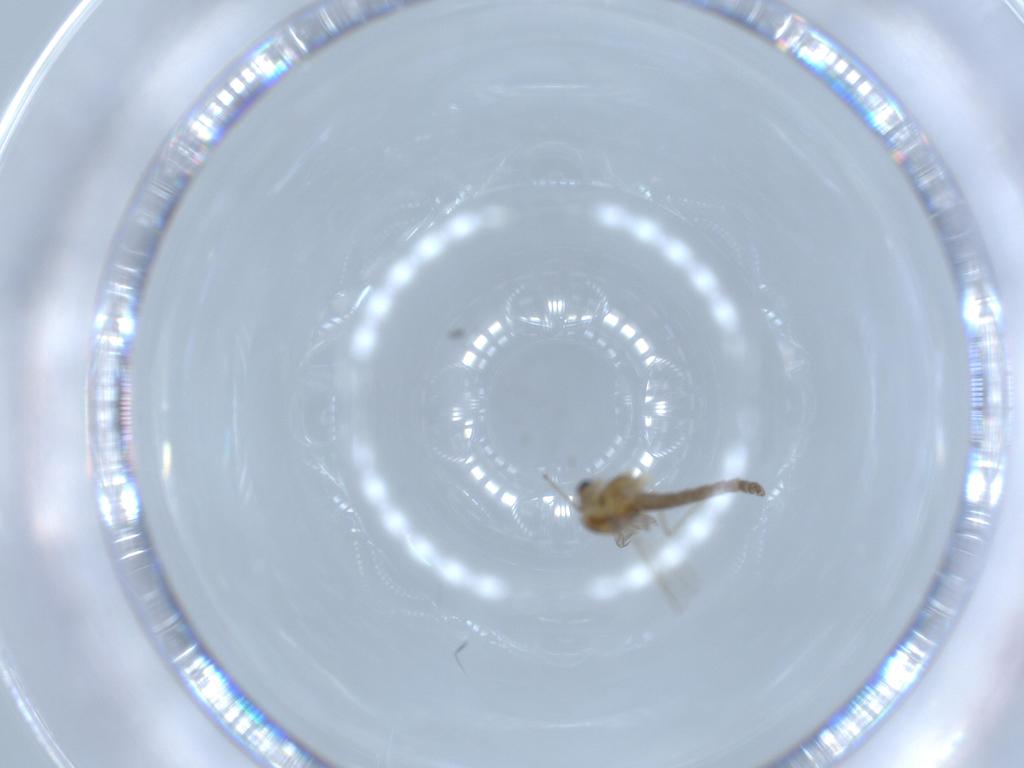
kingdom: Animalia
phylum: Arthropoda
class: Insecta
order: Diptera
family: Chironomidae
